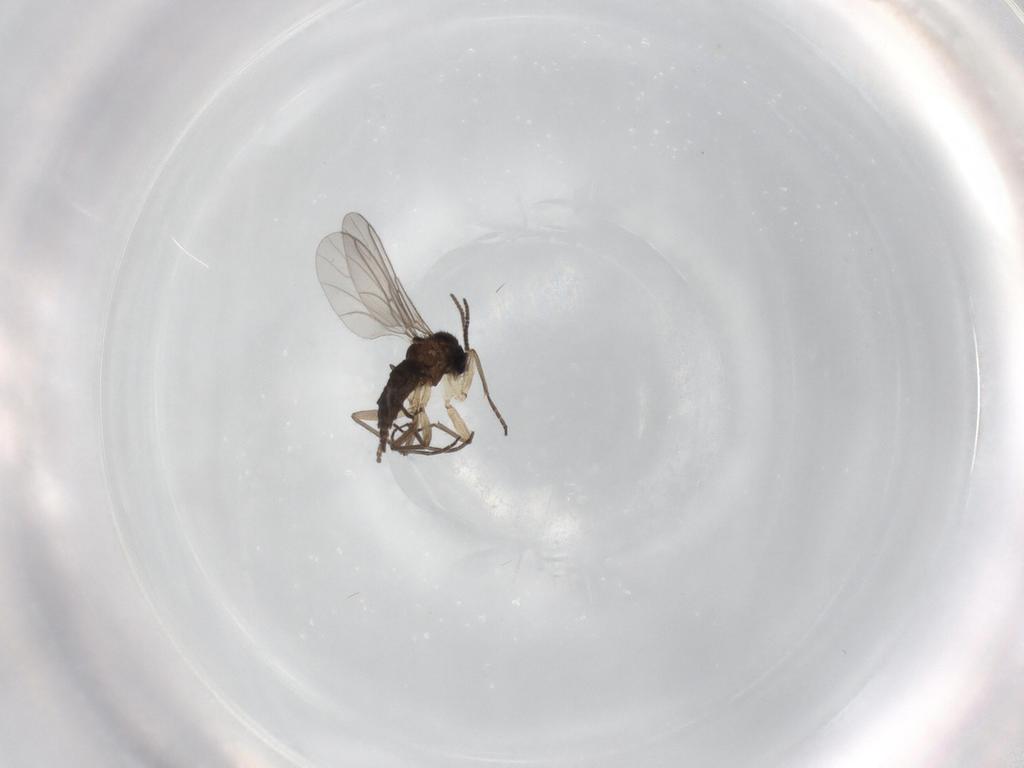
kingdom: Animalia
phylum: Arthropoda
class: Insecta
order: Diptera
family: Sciaridae
